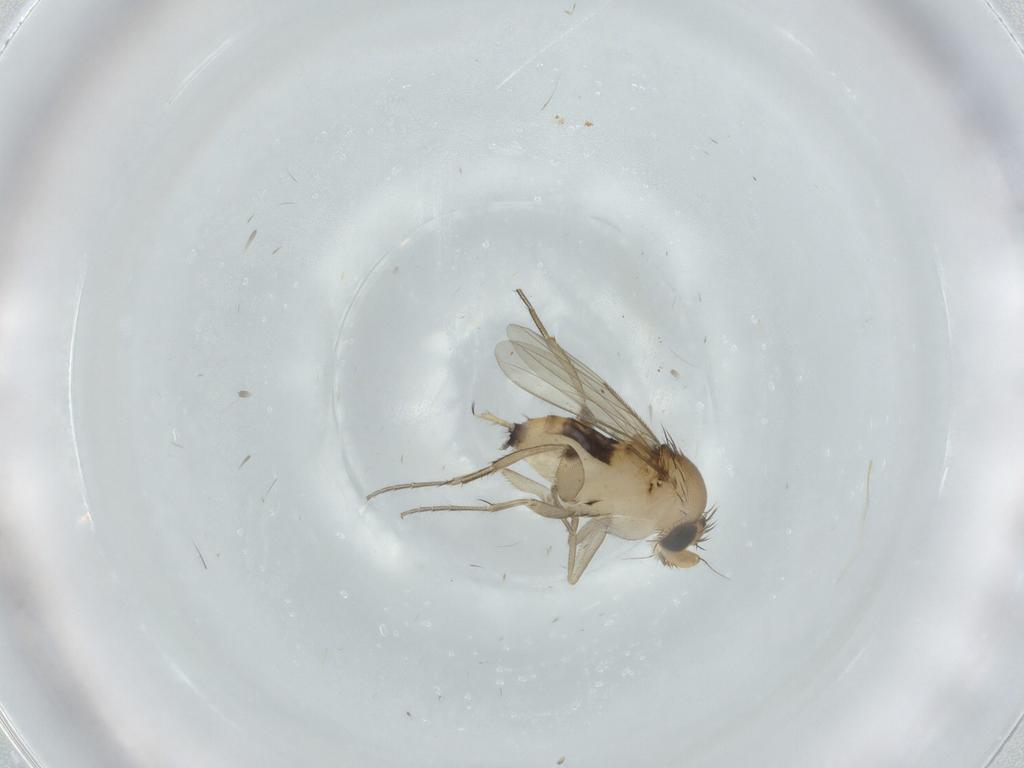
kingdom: Animalia
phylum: Arthropoda
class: Insecta
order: Diptera
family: Phoridae
